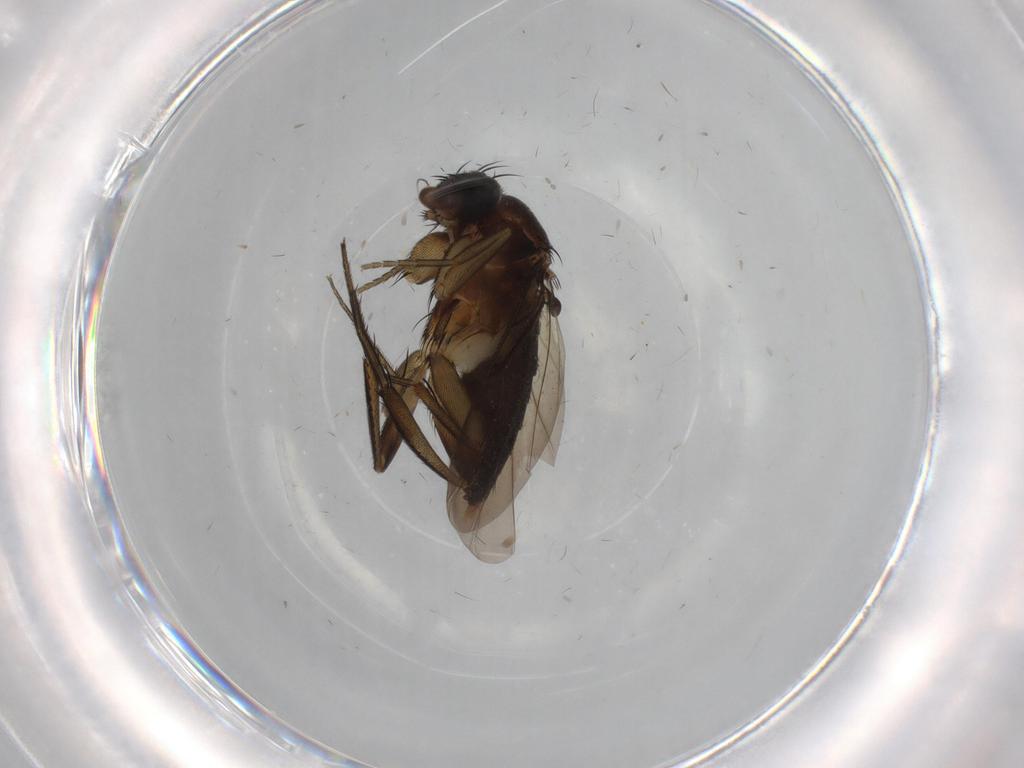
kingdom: Animalia
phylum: Arthropoda
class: Insecta
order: Diptera
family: Phoridae
